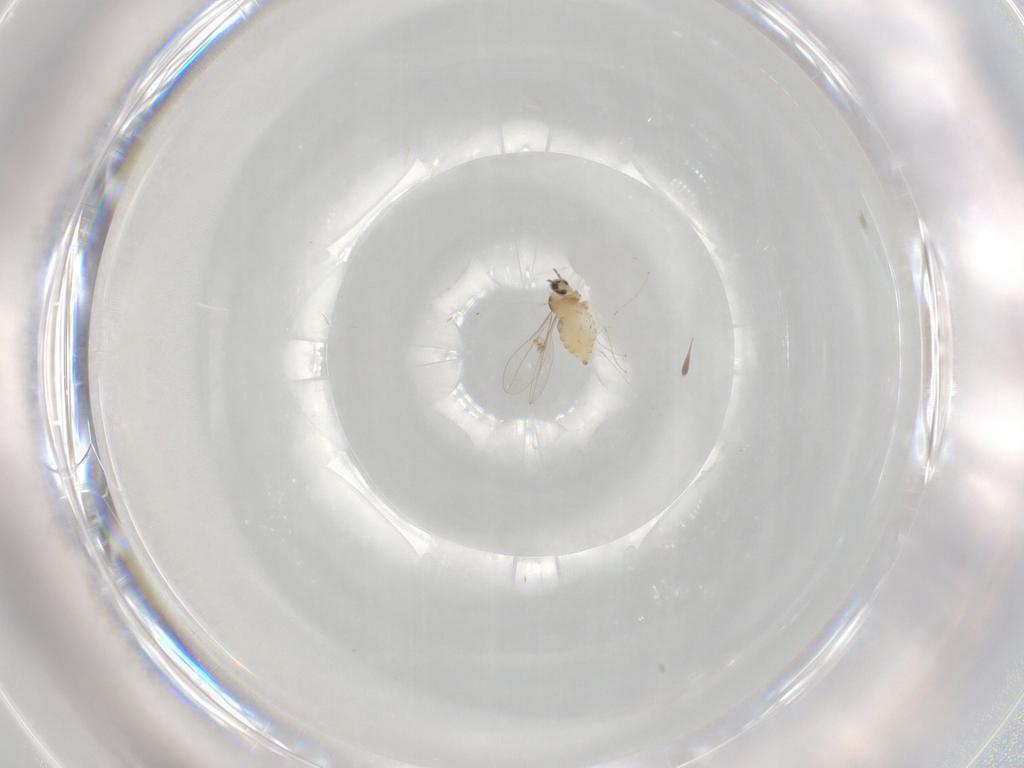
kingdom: Animalia
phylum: Arthropoda
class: Insecta
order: Diptera
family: Cecidomyiidae
